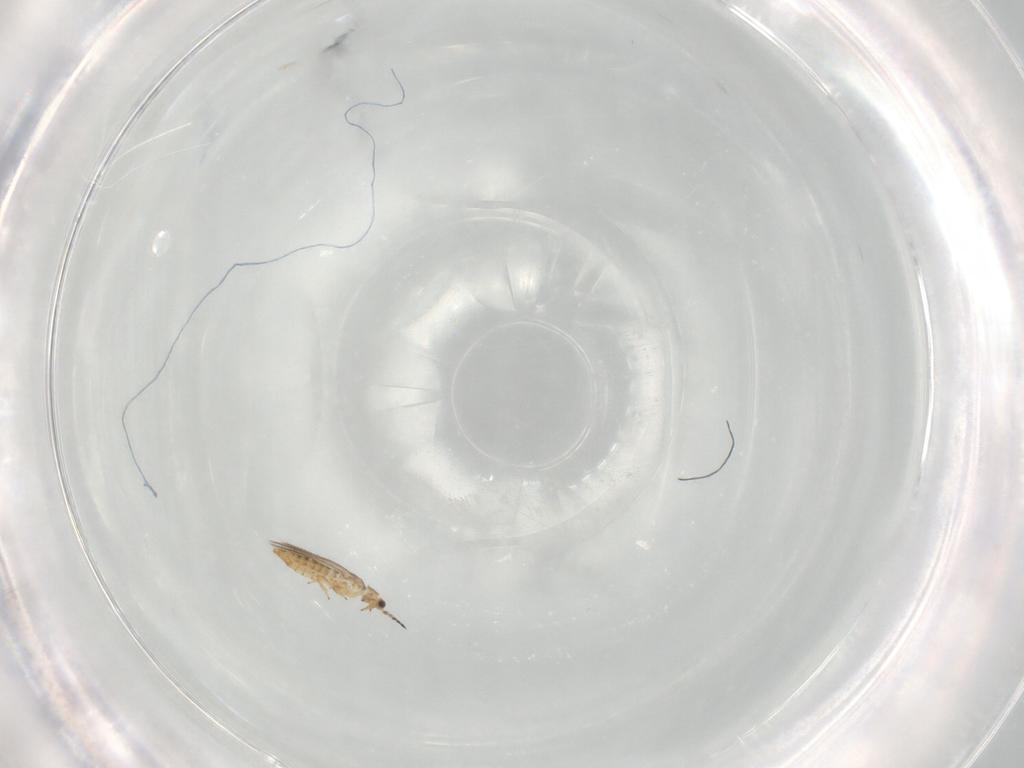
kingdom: Animalia
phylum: Arthropoda
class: Insecta
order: Thysanoptera
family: Thripidae
